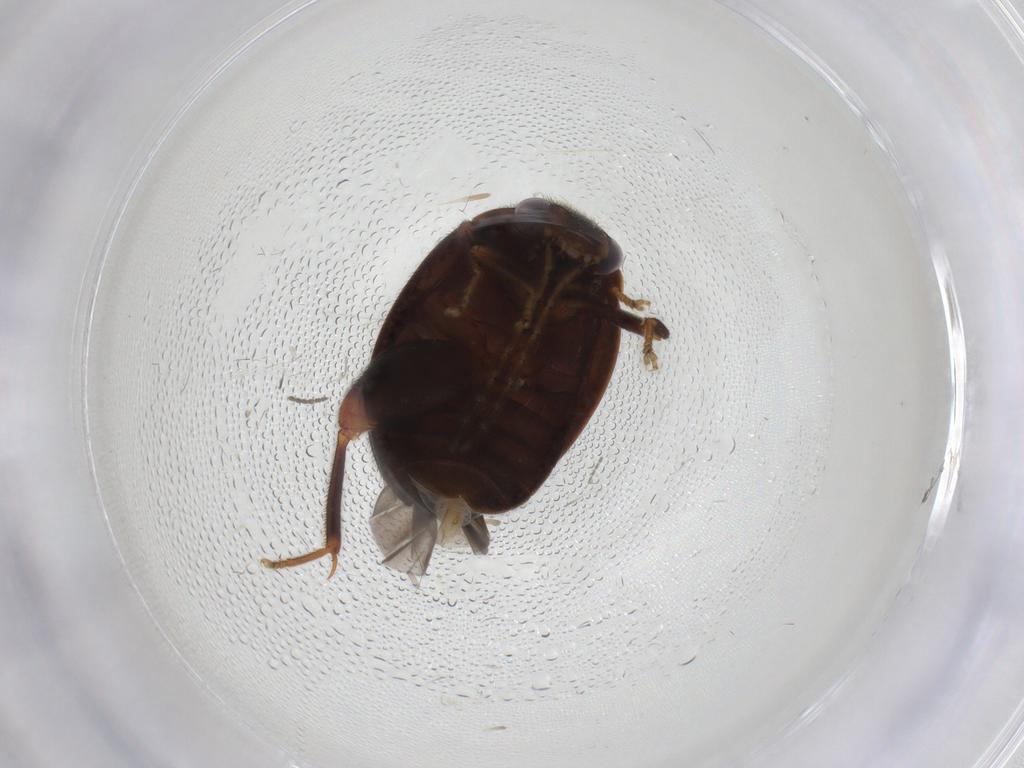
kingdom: Animalia
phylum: Arthropoda
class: Insecta
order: Coleoptera
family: Scirtidae
